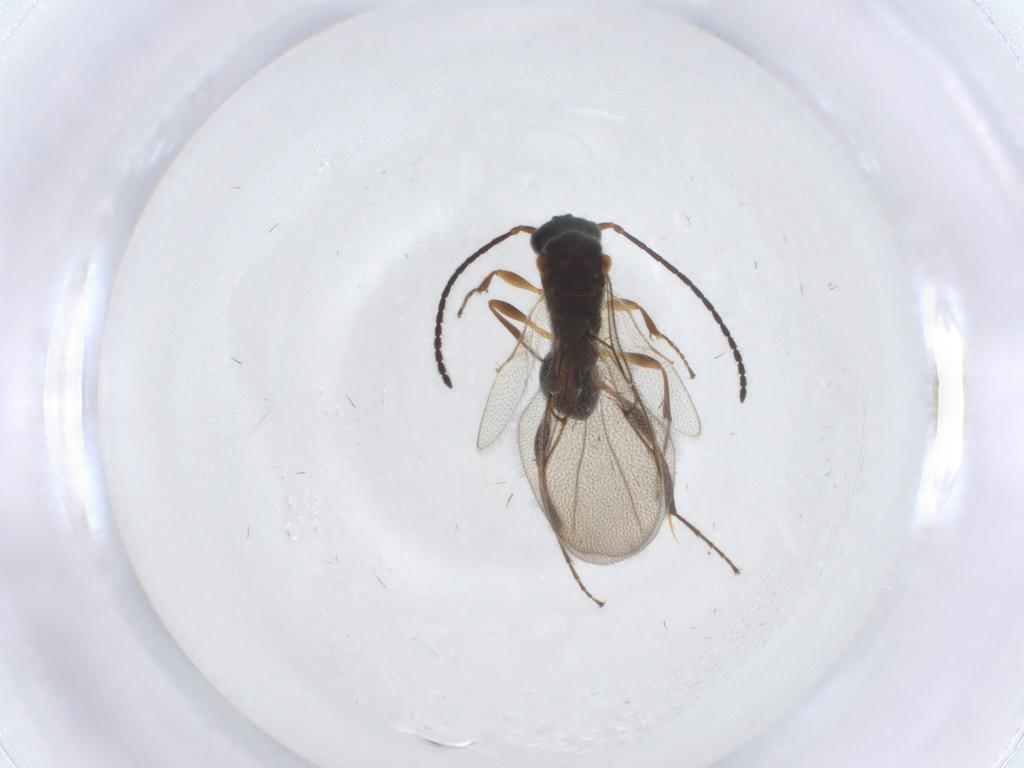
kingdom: Animalia
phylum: Arthropoda
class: Insecta
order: Hymenoptera
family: Diapriidae
